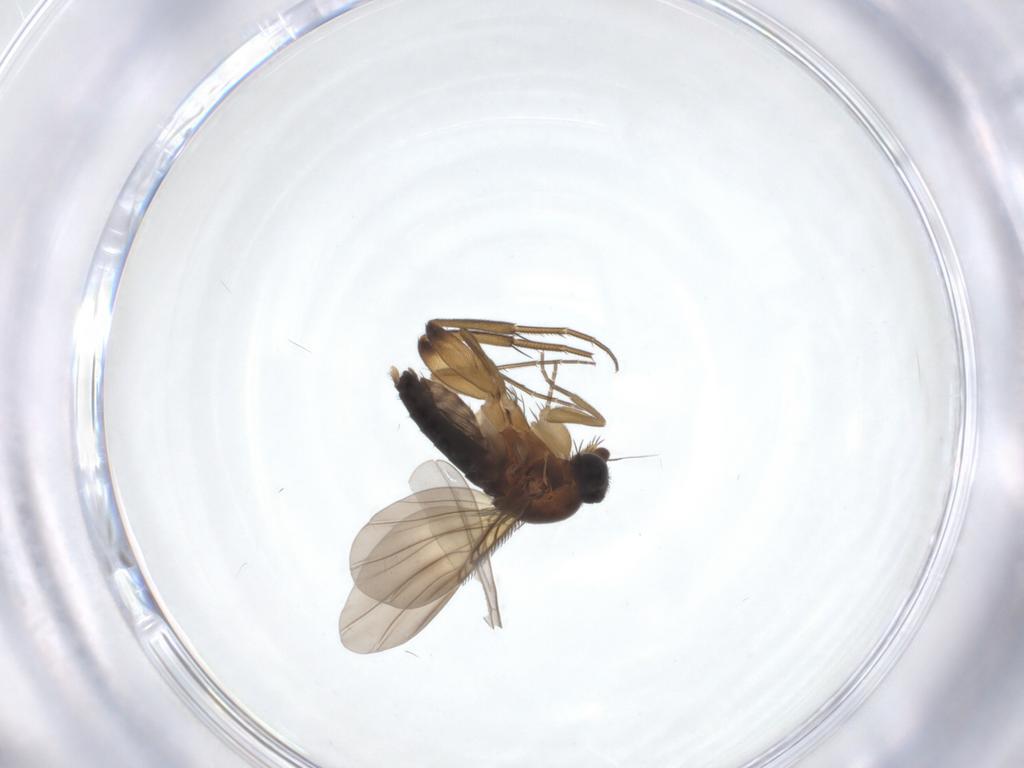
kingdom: Animalia
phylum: Arthropoda
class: Insecta
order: Diptera
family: Phoridae
